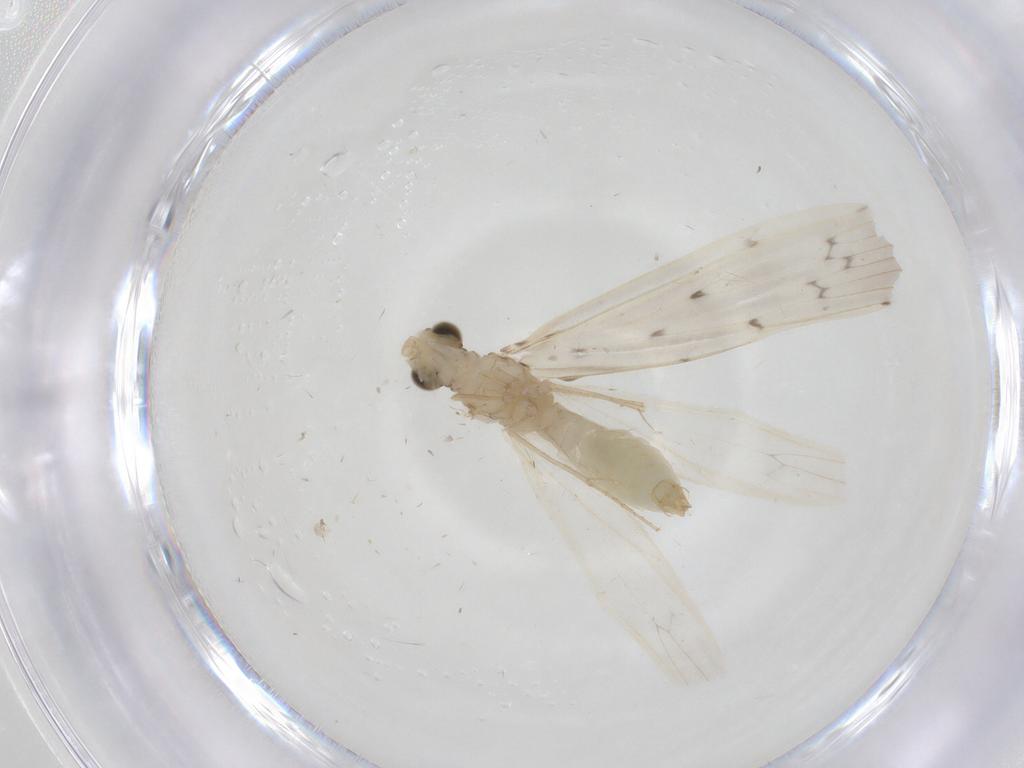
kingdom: Animalia
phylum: Arthropoda
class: Insecta
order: Trichoptera
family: Leptoceridae
